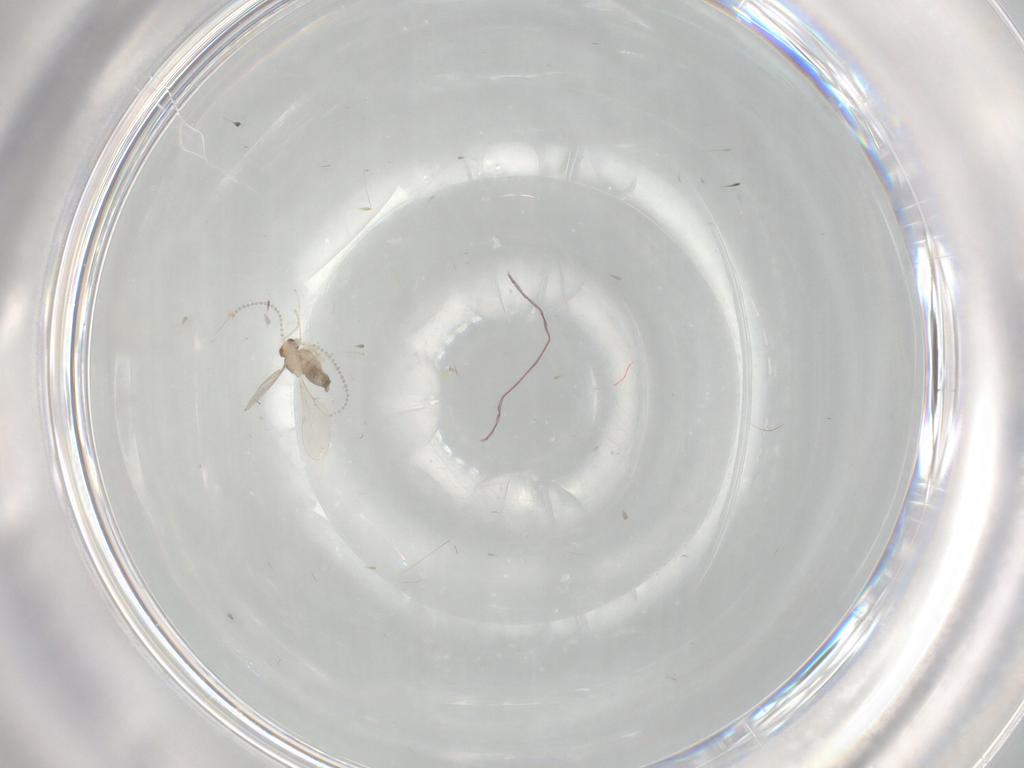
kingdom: Animalia
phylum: Arthropoda
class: Insecta
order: Diptera
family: Cecidomyiidae
